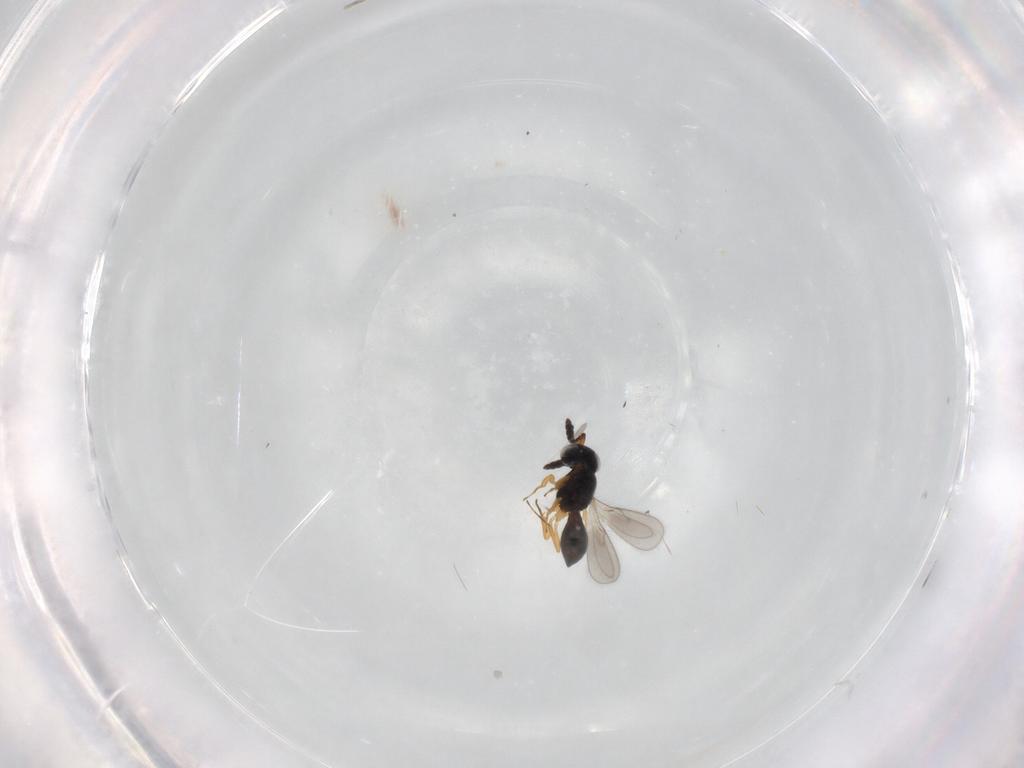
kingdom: Animalia
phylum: Arthropoda
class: Insecta
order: Hymenoptera
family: Scelionidae
